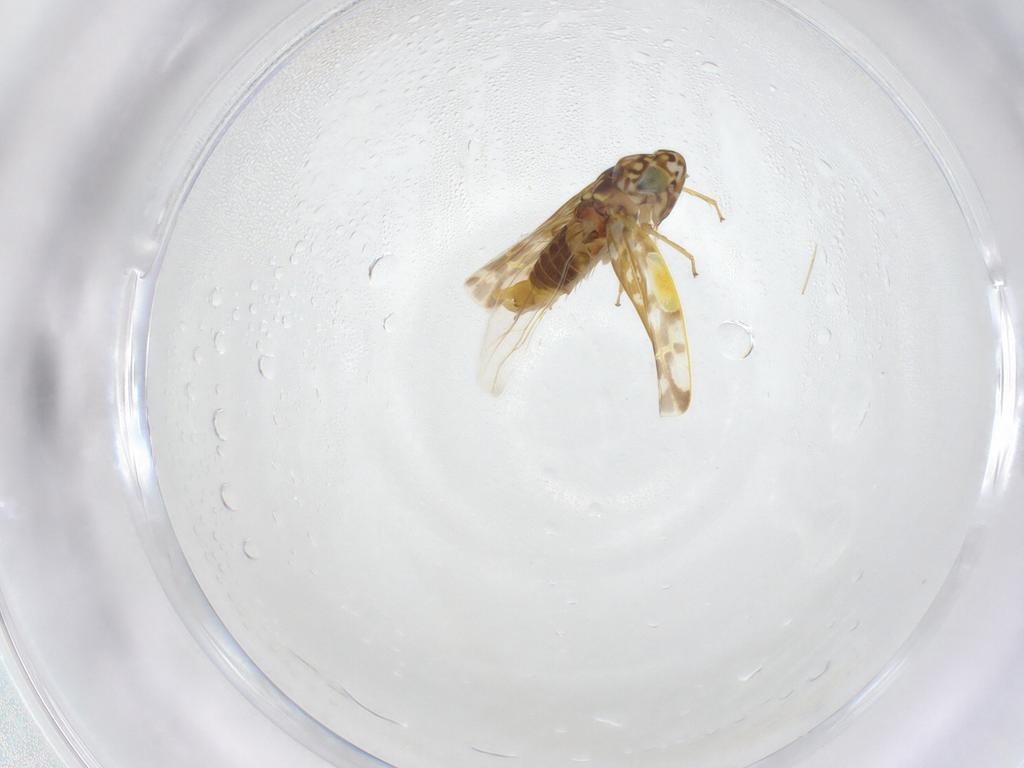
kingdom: Animalia
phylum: Arthropoda
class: Insecta
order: Hemiptera
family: Cicadellidae
